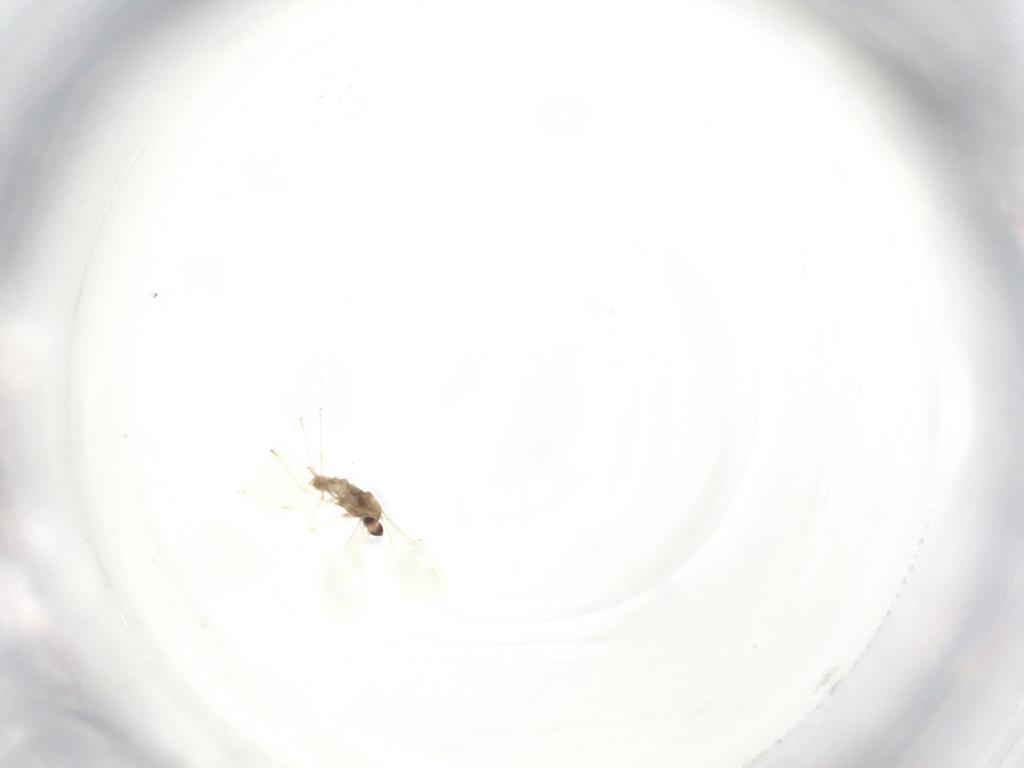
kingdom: Animalia
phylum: Arthropoda
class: Insecta
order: Diptera
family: Cecidomyiidae
